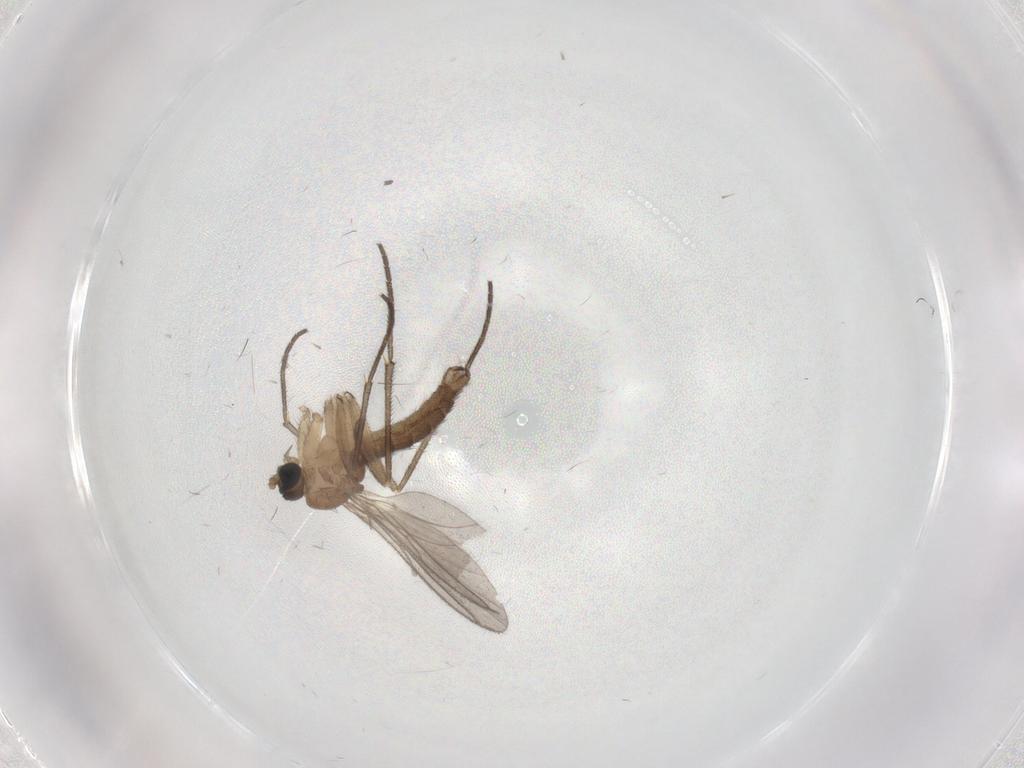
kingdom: Animalia
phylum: Arthropoda
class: Insecta
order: Diptera
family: Sciaridae
